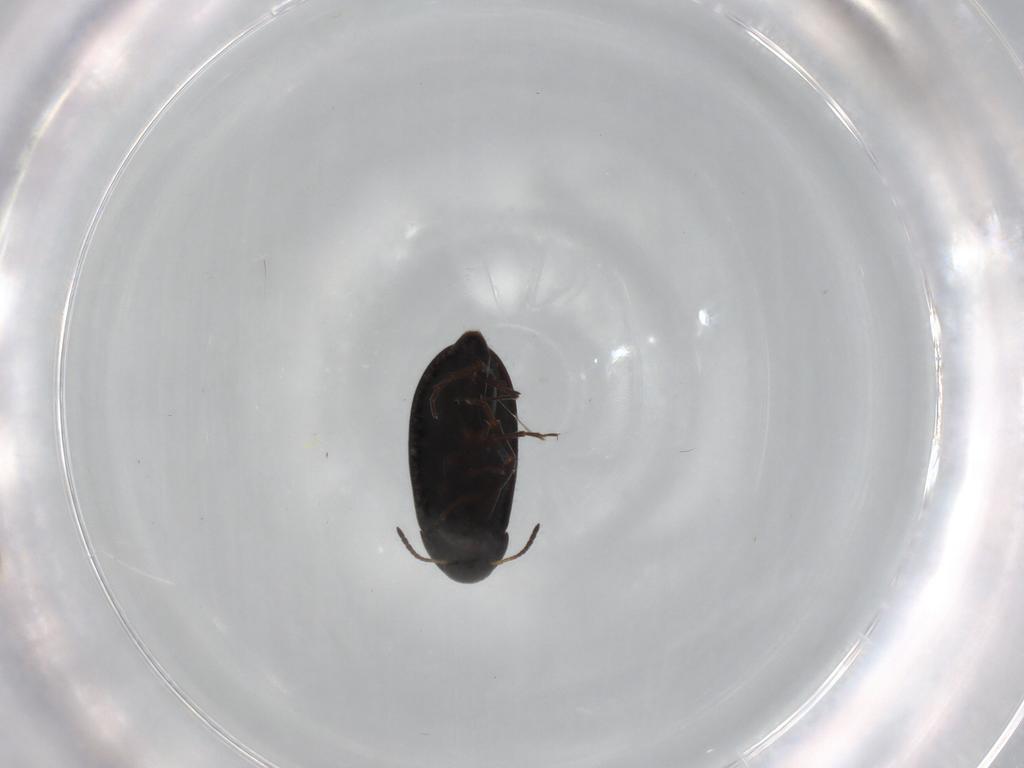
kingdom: Animalia
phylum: Arthropoda
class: Insecta
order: Coleoptera
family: Scraptiidae
